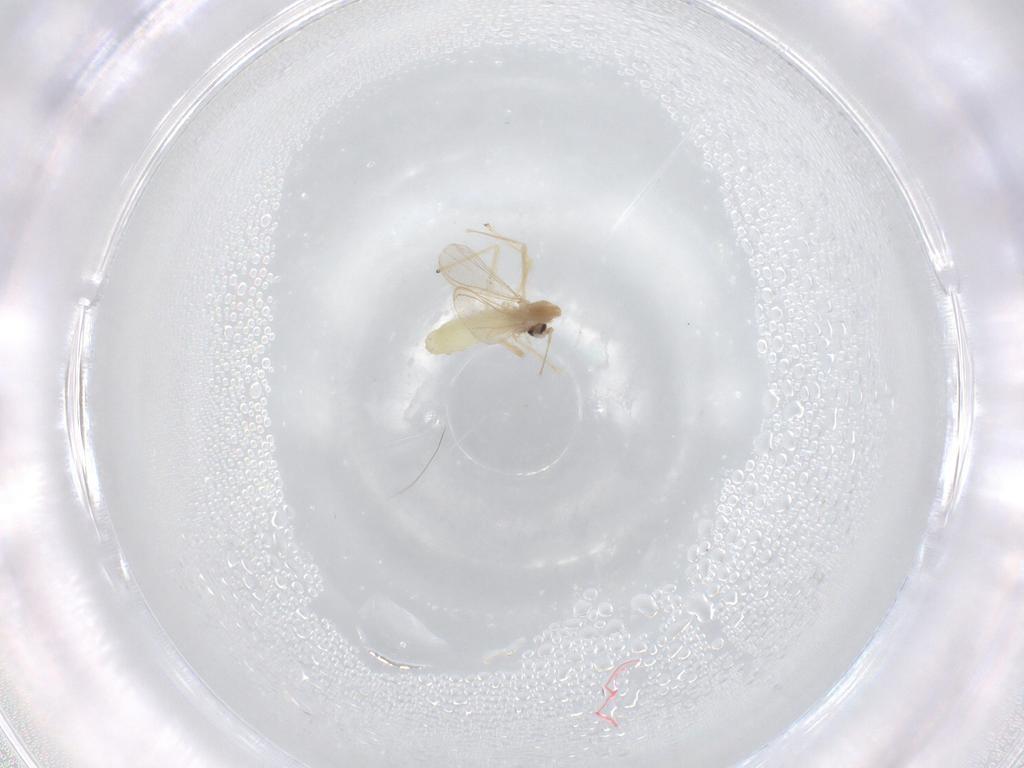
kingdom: Animalia
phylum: Arthropoda
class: Insecta
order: Diptera
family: Chironomidae
